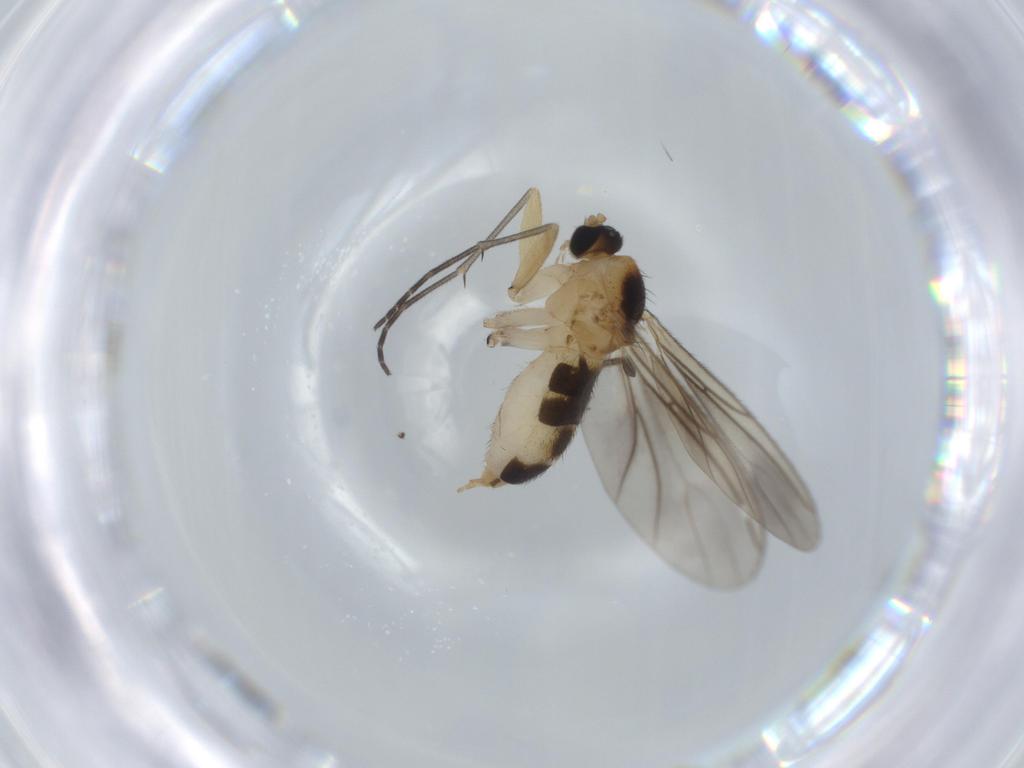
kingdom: Animalia
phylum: Arthropoda
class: Insecta
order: Diptera
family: Sciaridae
